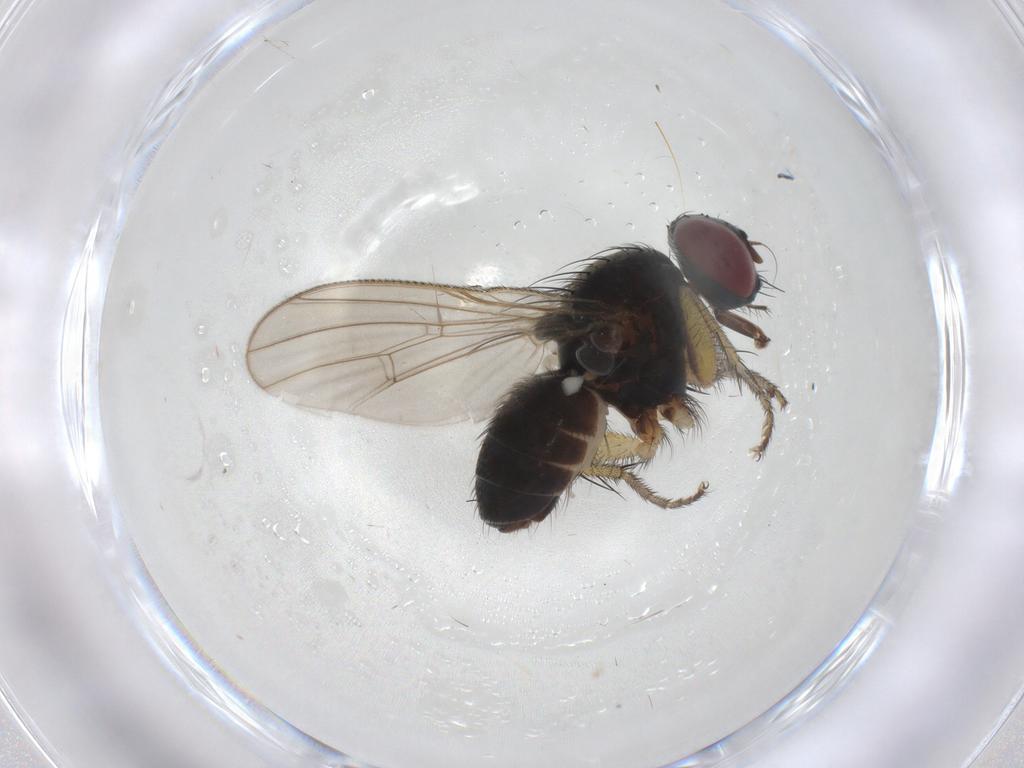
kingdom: Animalia
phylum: Arthropoda
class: Insecta
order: Diptera
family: Muscidae
